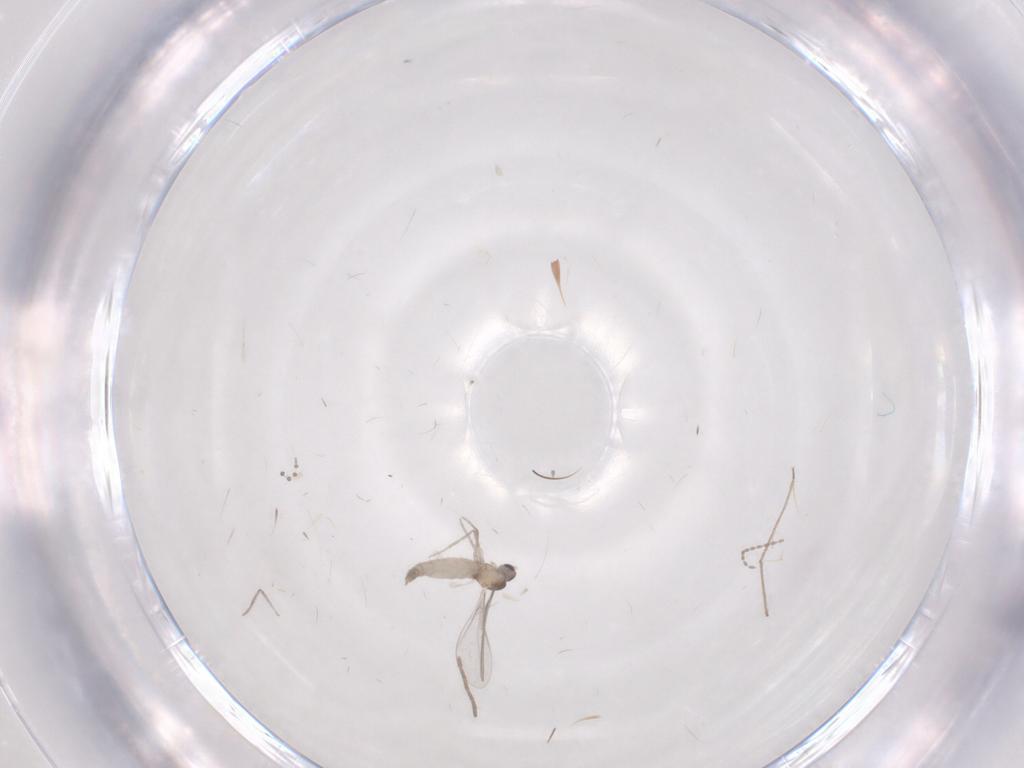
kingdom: Animalia
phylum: Arthropoda
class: Insecta
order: Diptera
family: Cecidomyiidae
